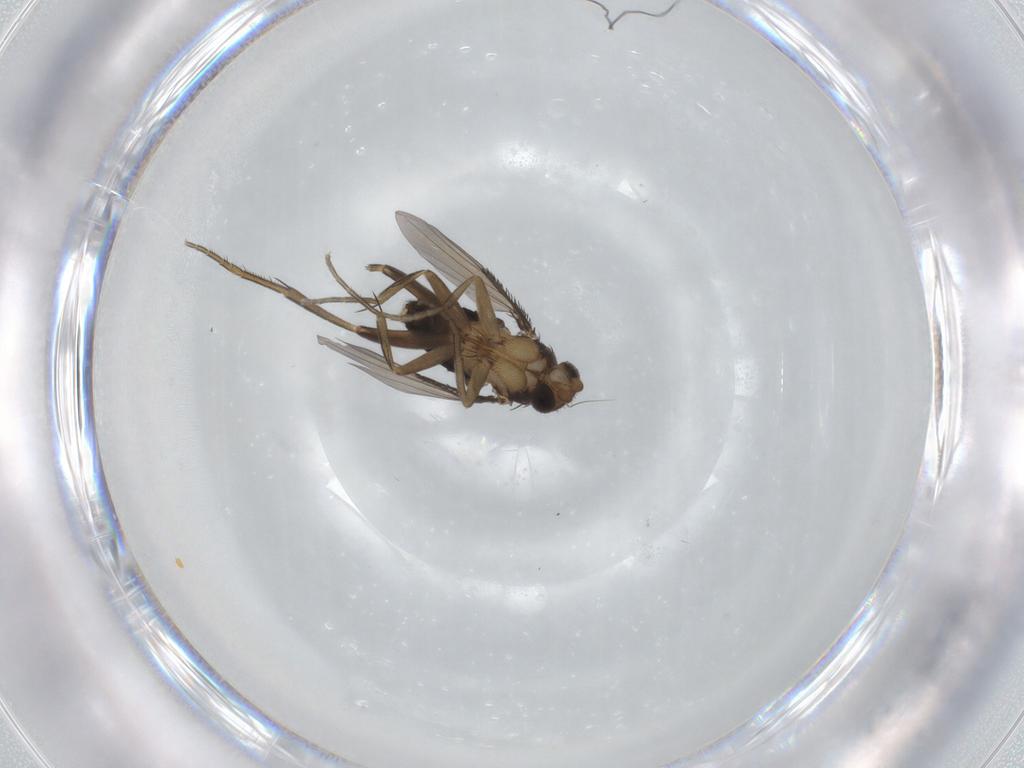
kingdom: Animalia
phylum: Arthropoda
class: Insecta
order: Diptera
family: Phoridae
